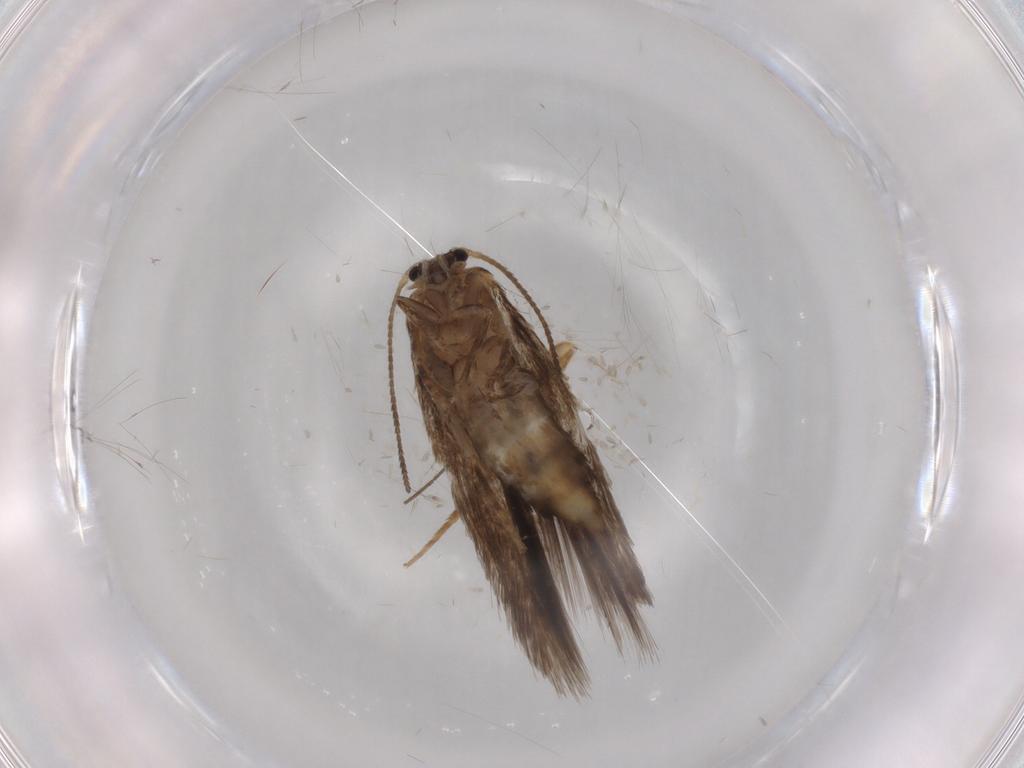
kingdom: Animalia
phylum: Arthropoda
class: Insecta
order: Lepidoptera
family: Nepticulidae
